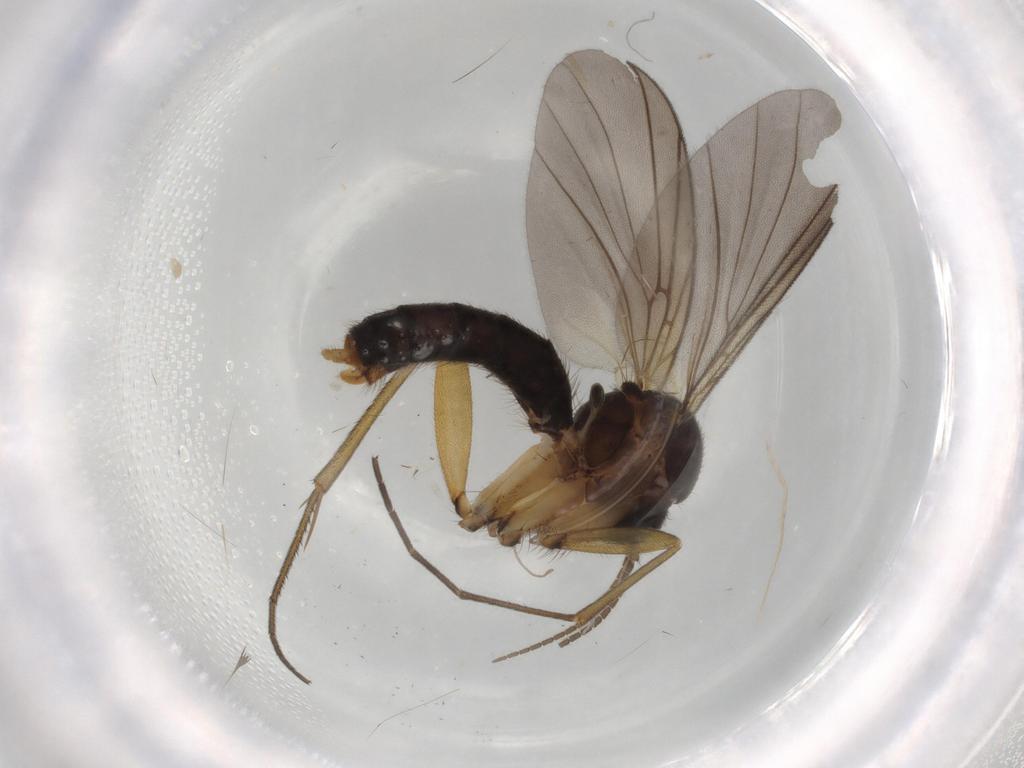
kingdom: Animalia
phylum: Arthropoda
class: Insecta
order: Diptera
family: Mycetophilidae
